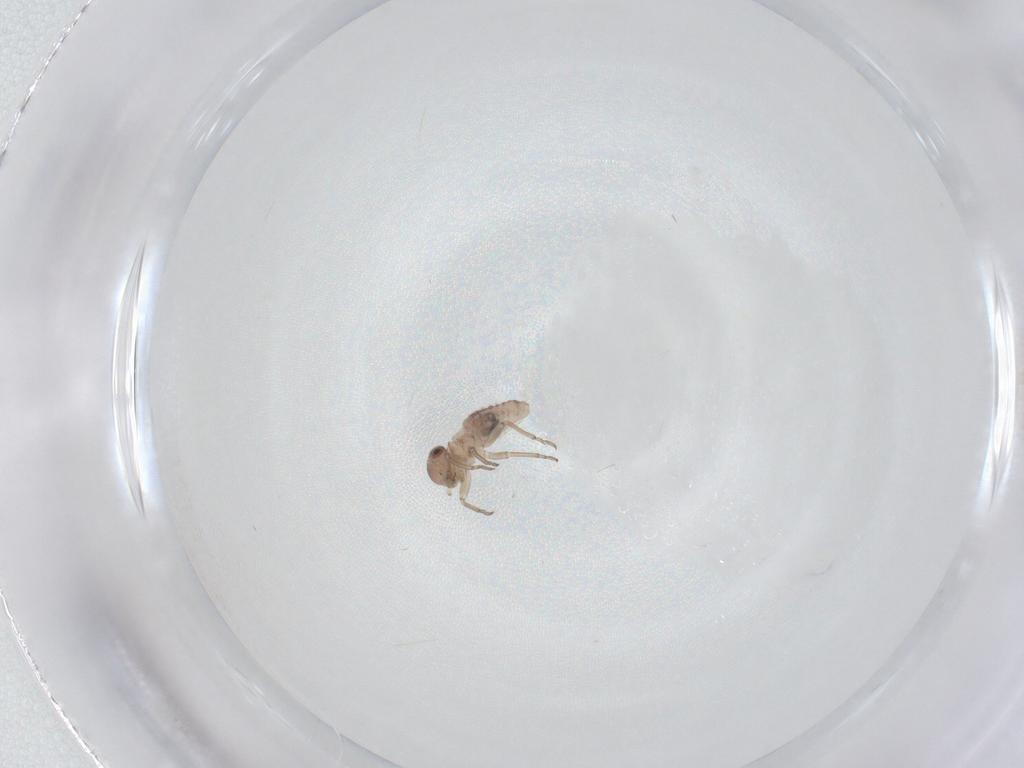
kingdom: Animalia
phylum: Arthropoda
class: Insecta
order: Psocodea
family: Psocidae
